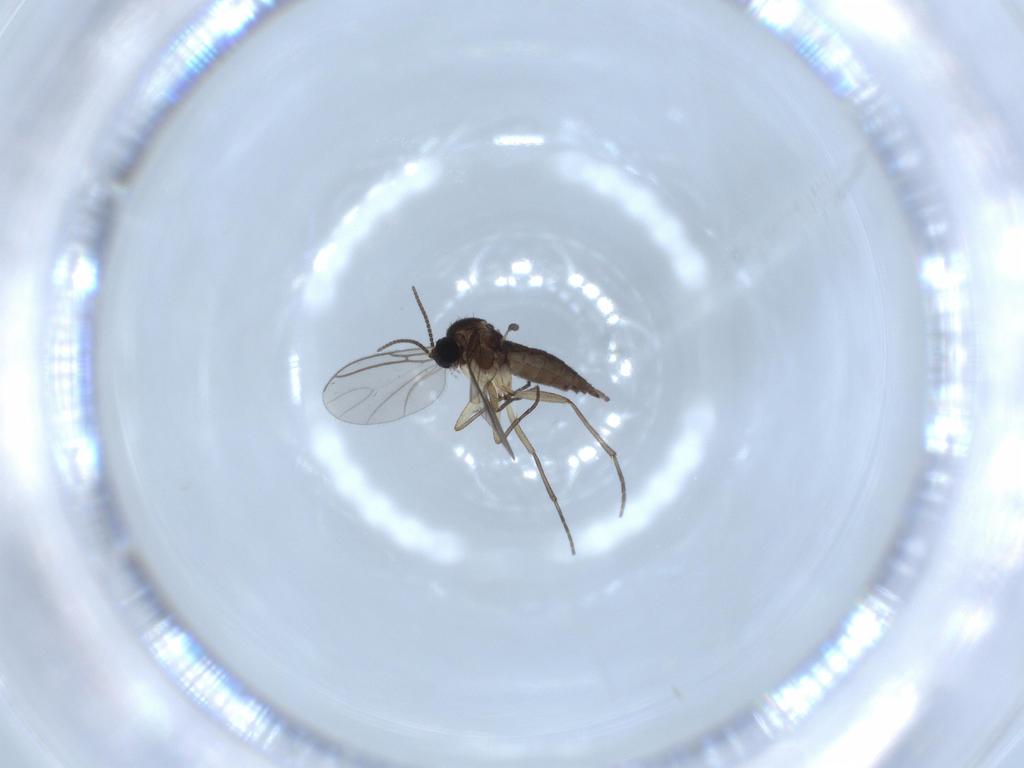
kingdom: Animalia
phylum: Arthropoda
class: Insecta
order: Diptera
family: Sciaridae
